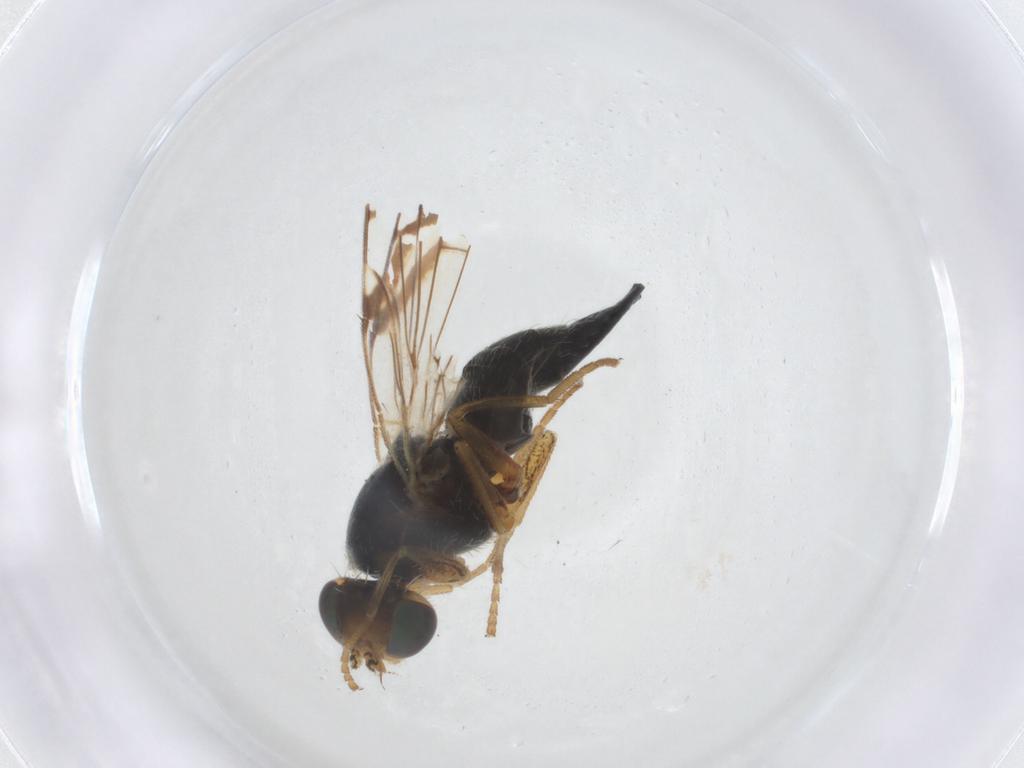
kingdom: Animalia
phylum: Arthropoda
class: Insecta
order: Diptera
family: Tephritidae
